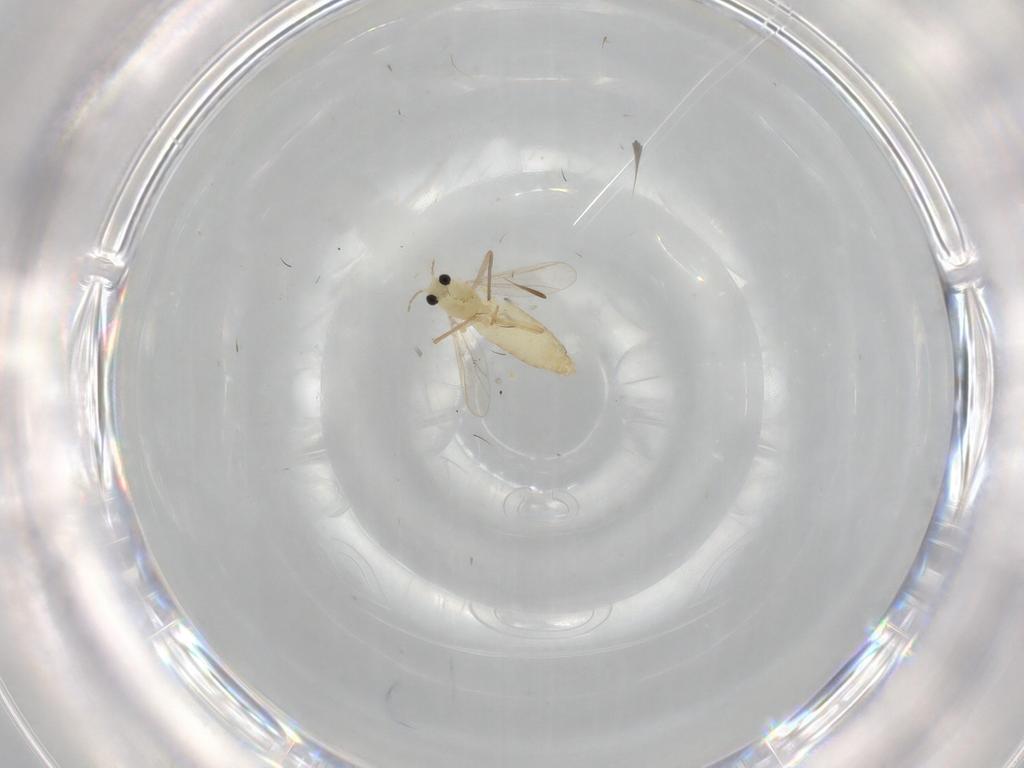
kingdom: Animalia
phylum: Arthropoda
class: Insecta
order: Diptera
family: Chironomidae
